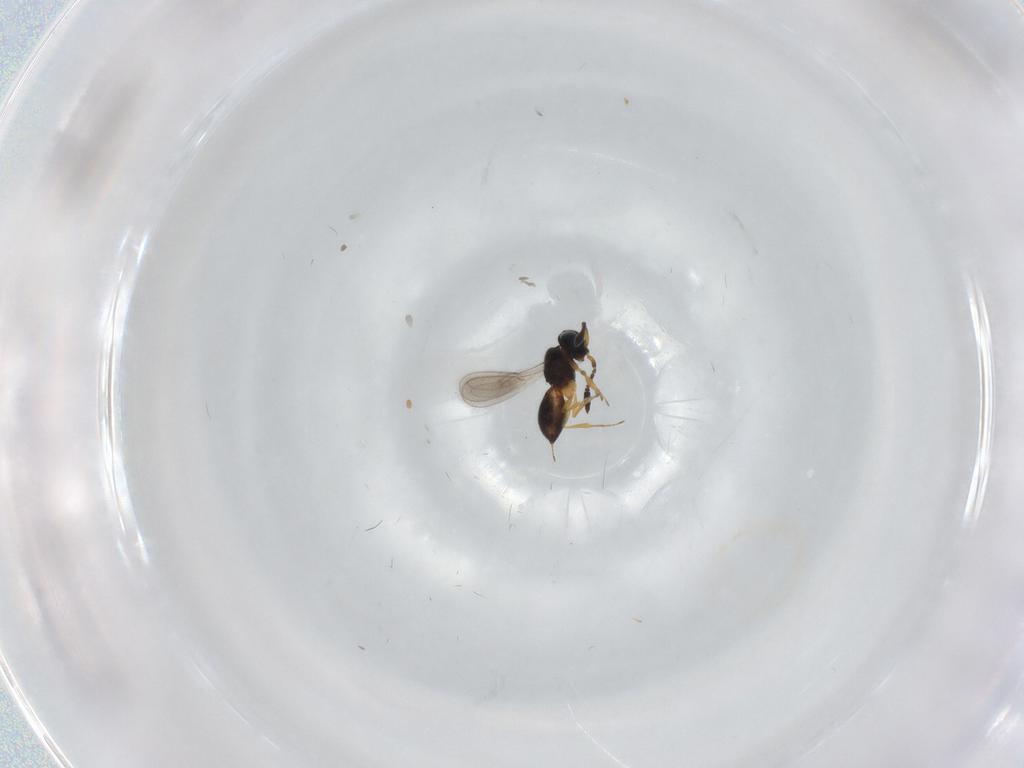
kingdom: Animalia
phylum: Arthropoda
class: Insecta
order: Hymenoptera
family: Scelionidae
